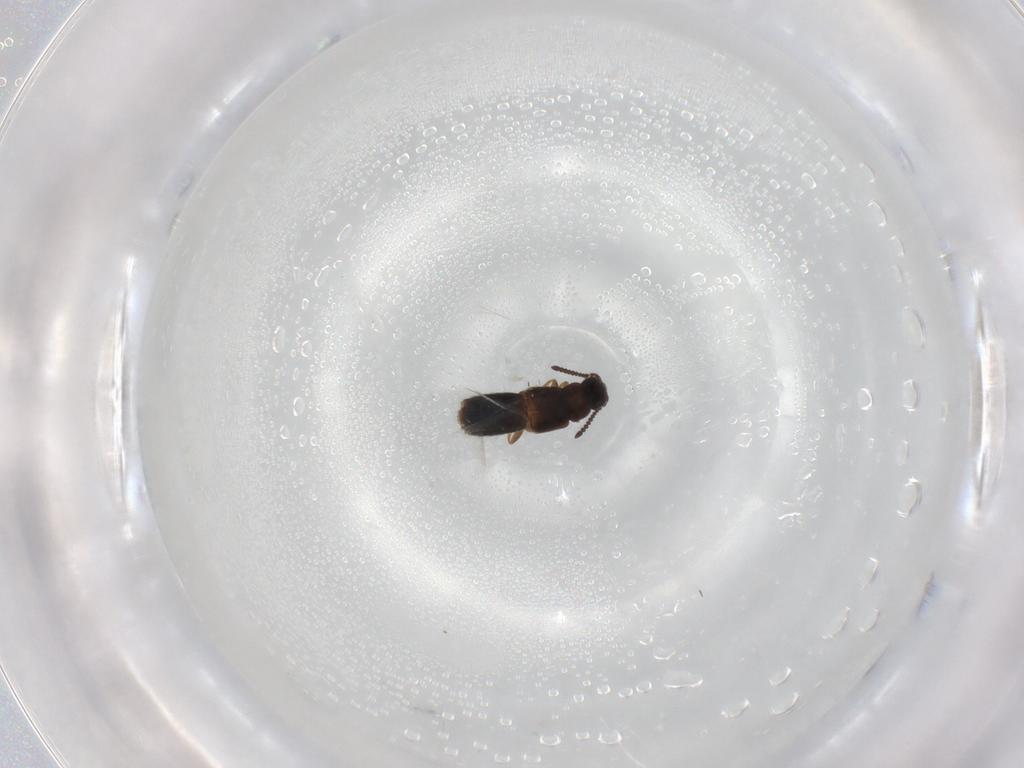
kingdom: Animalia
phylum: Arthropoda
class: Insecta
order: Coleoptera
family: Staphylinidae
